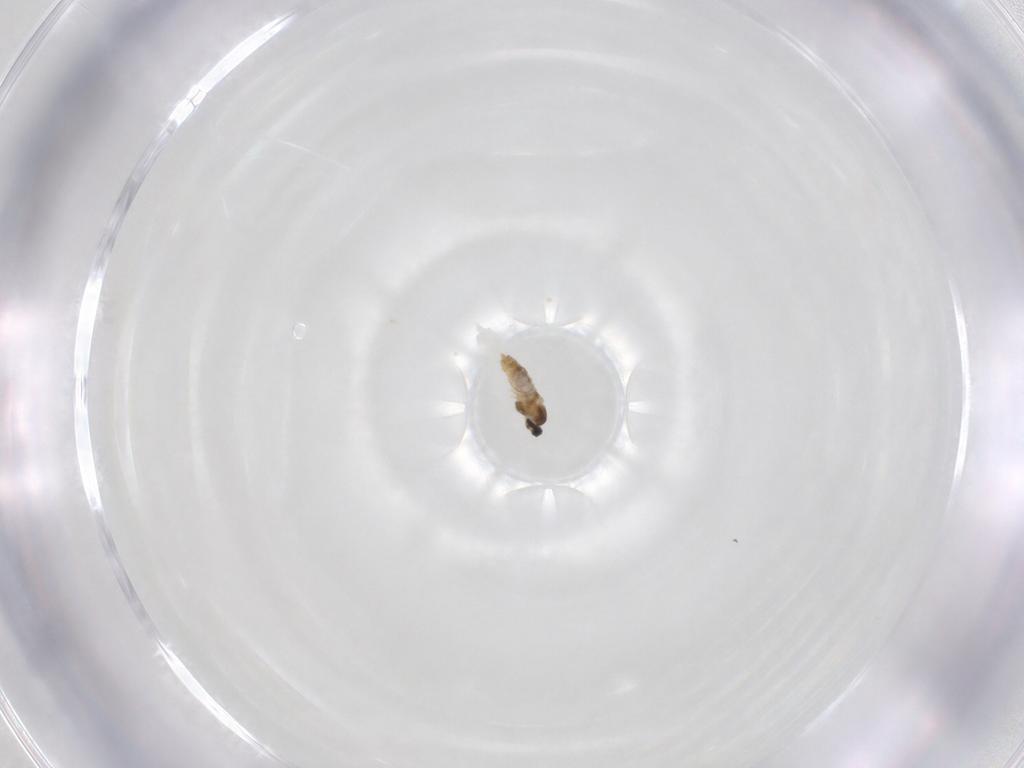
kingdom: Animalia
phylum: Arthropoda
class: Insecta
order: Diptera
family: Cecidomyiidae
